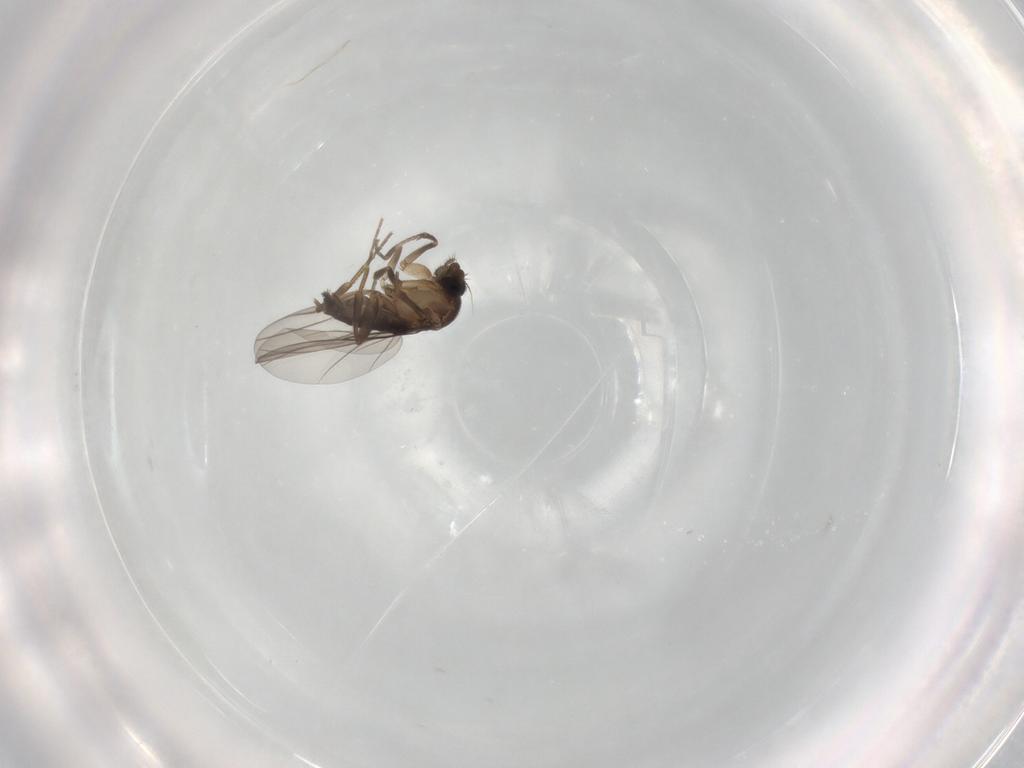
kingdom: Animalia
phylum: Arthropoda
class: Insecta
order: Diptera
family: Phoridae
